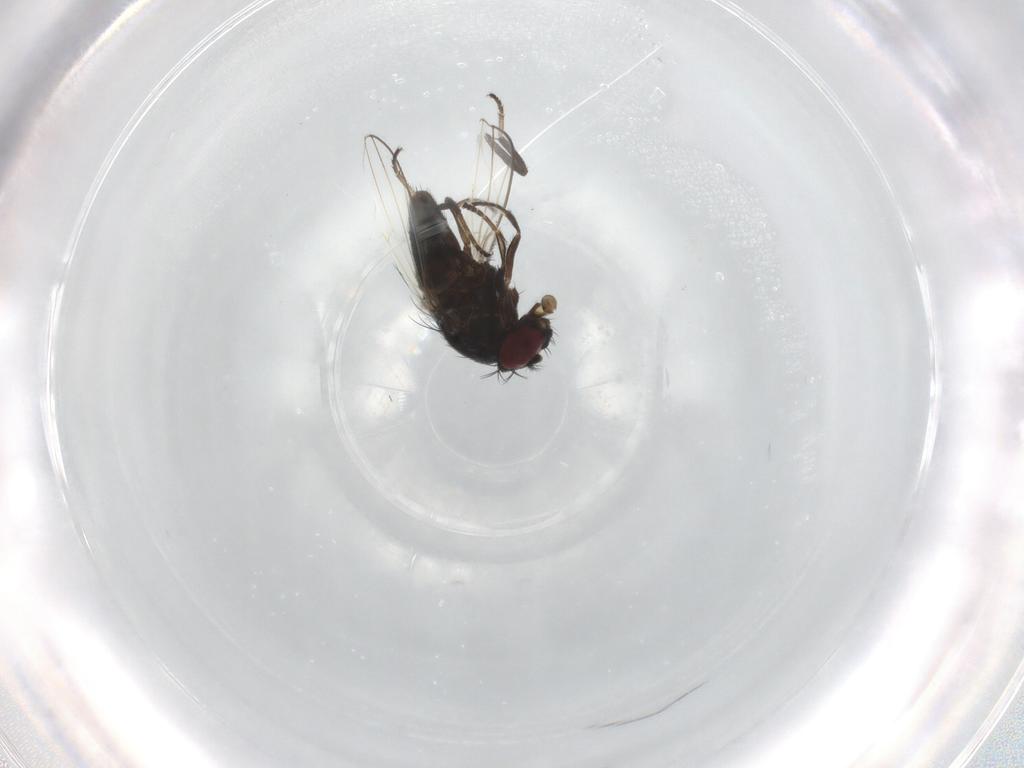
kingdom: Animalia
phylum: Arthropoda
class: Insecta
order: Diptera
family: Ephydridae
